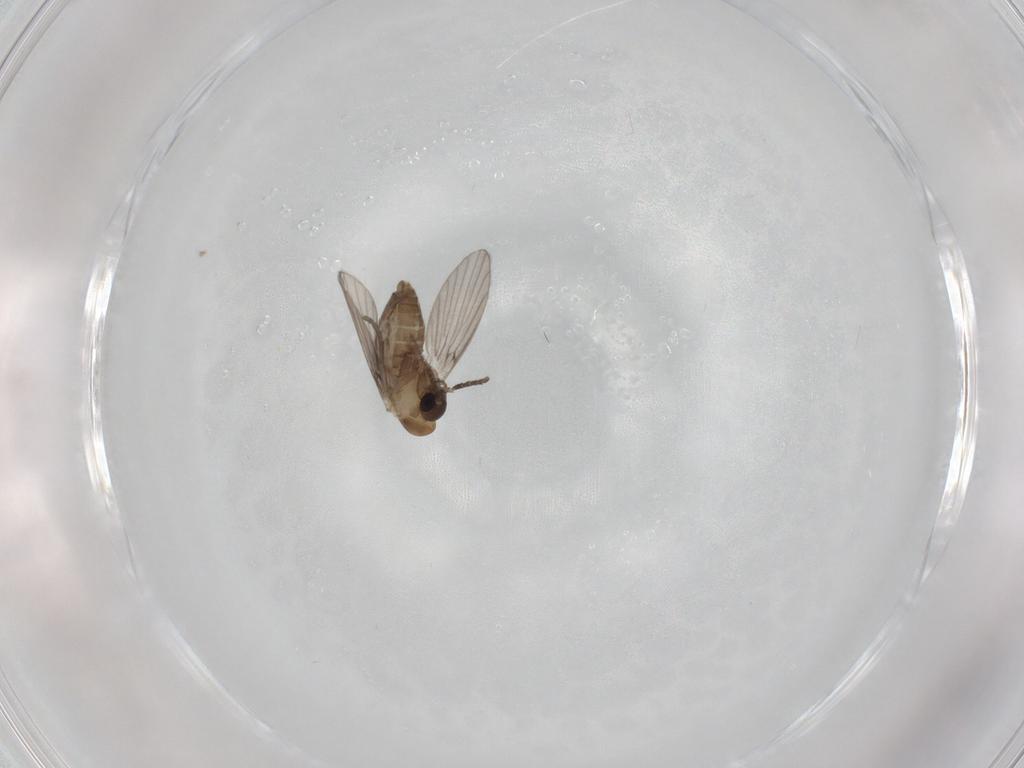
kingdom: Animalia
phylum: Arthropoda
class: Insecta
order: Diptera
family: Psychodidae
